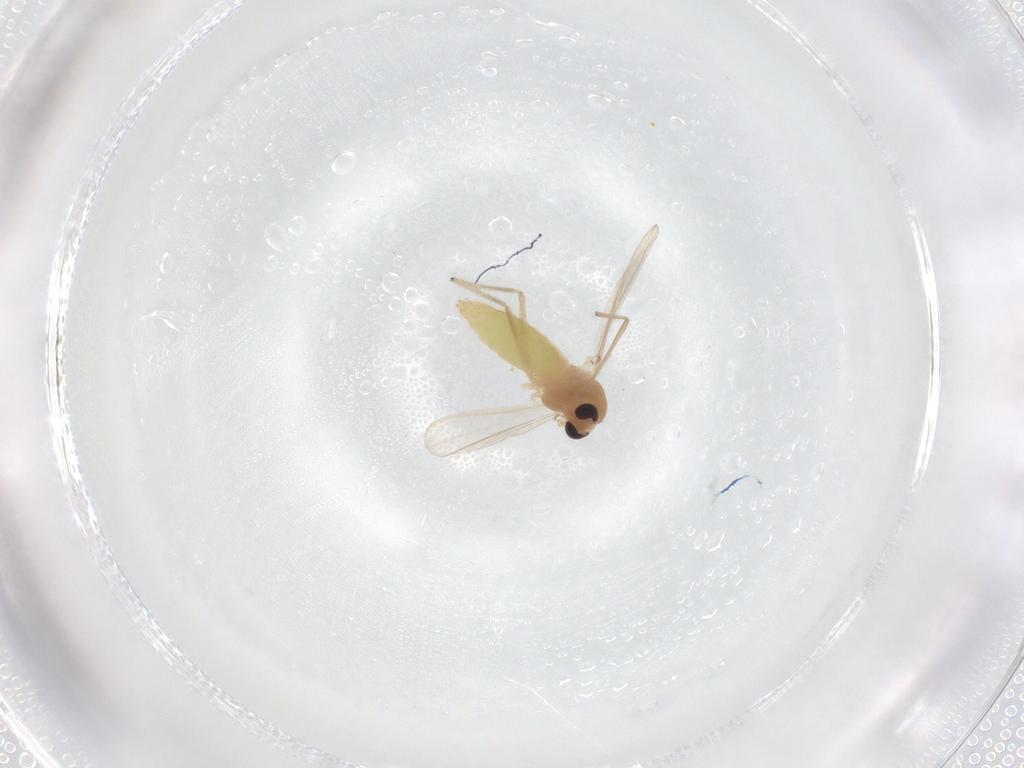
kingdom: Animalia
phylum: Arthropoda
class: Insecta
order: Diptera
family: Chironomidae
